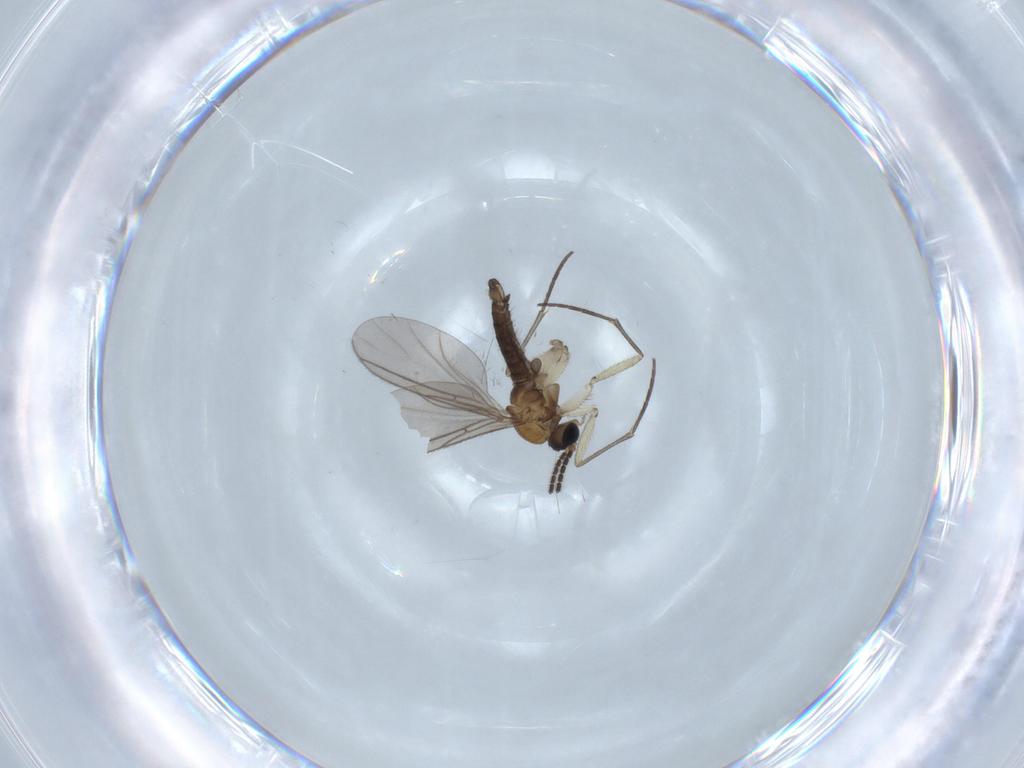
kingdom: Animalia
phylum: Arthropoda
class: Insecta
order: Diptera
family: Sciaridae
